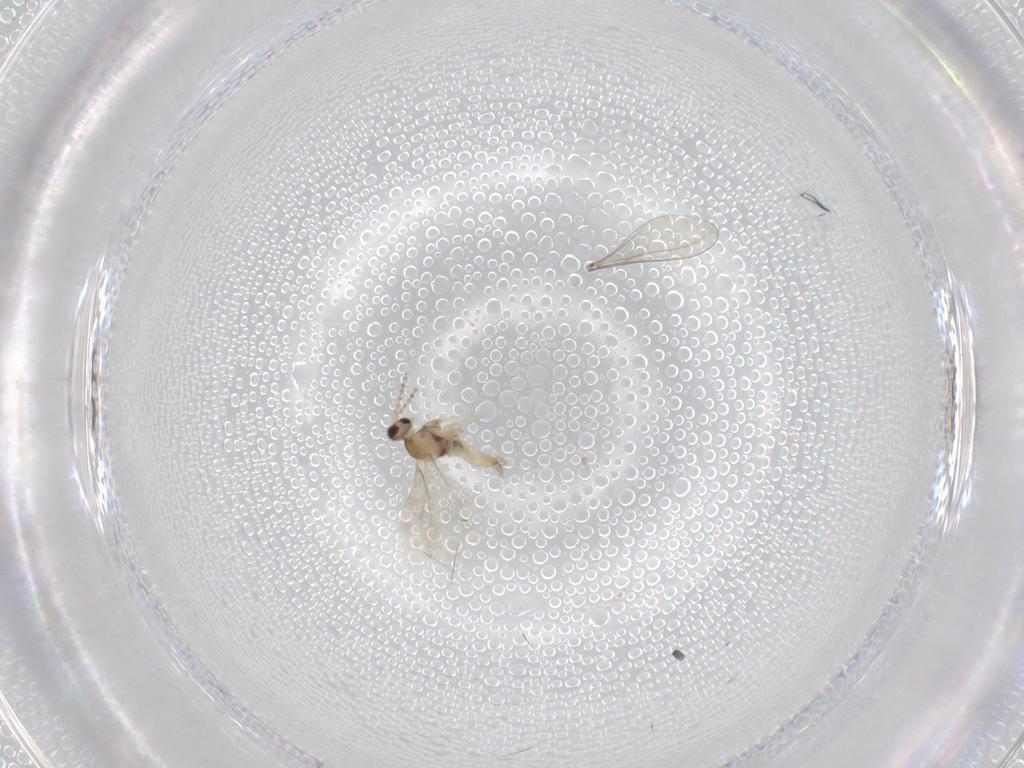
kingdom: Animalia
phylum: Arthropoda
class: Insecta
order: Diptera
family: Cecidomyiidae
